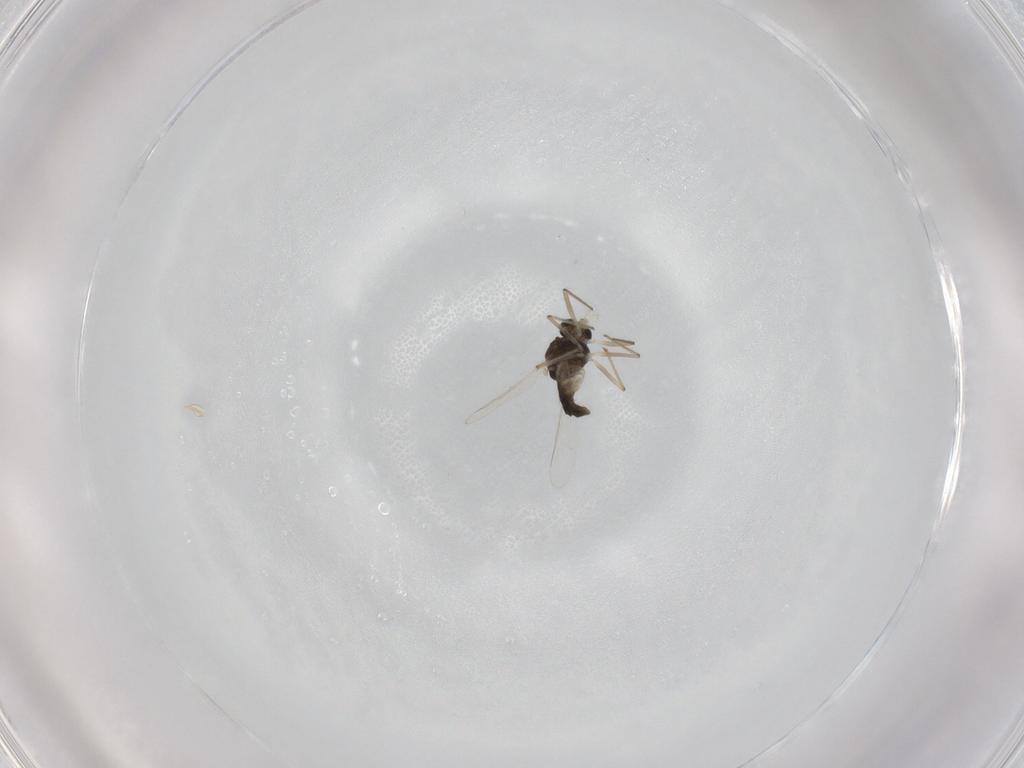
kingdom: Animalia
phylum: Arthropoda
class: Insecta
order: Diptera
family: Chironomidae
